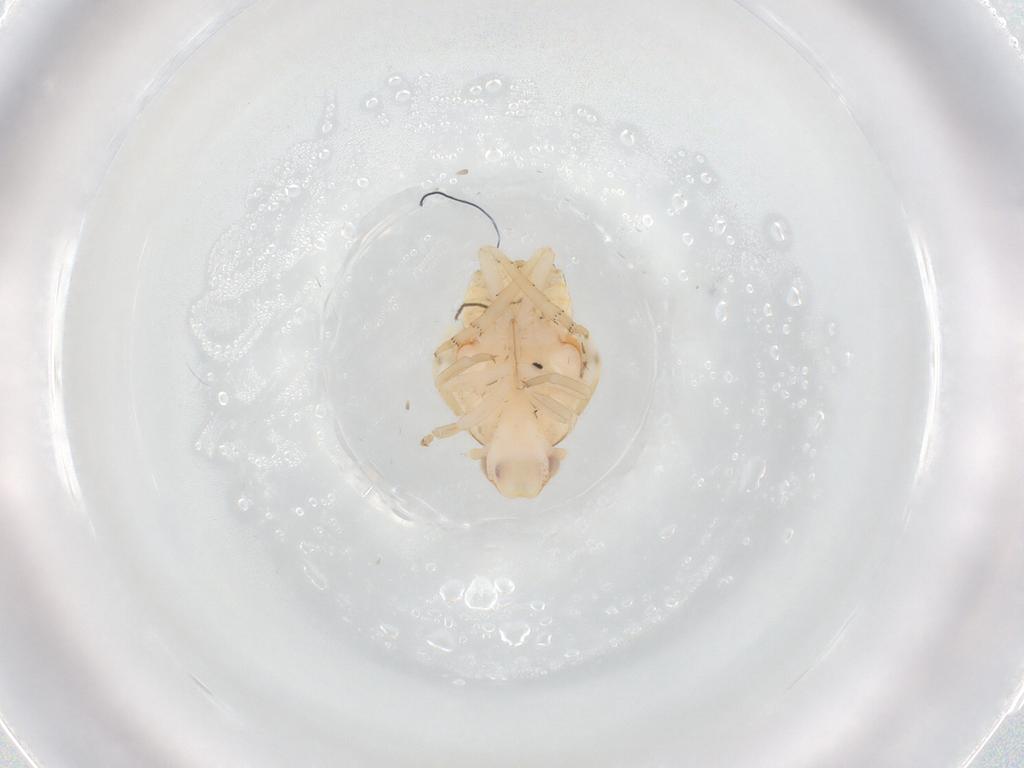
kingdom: Animalia
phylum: Arthropoda
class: Insecta
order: Hemiptera
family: Flatidae
